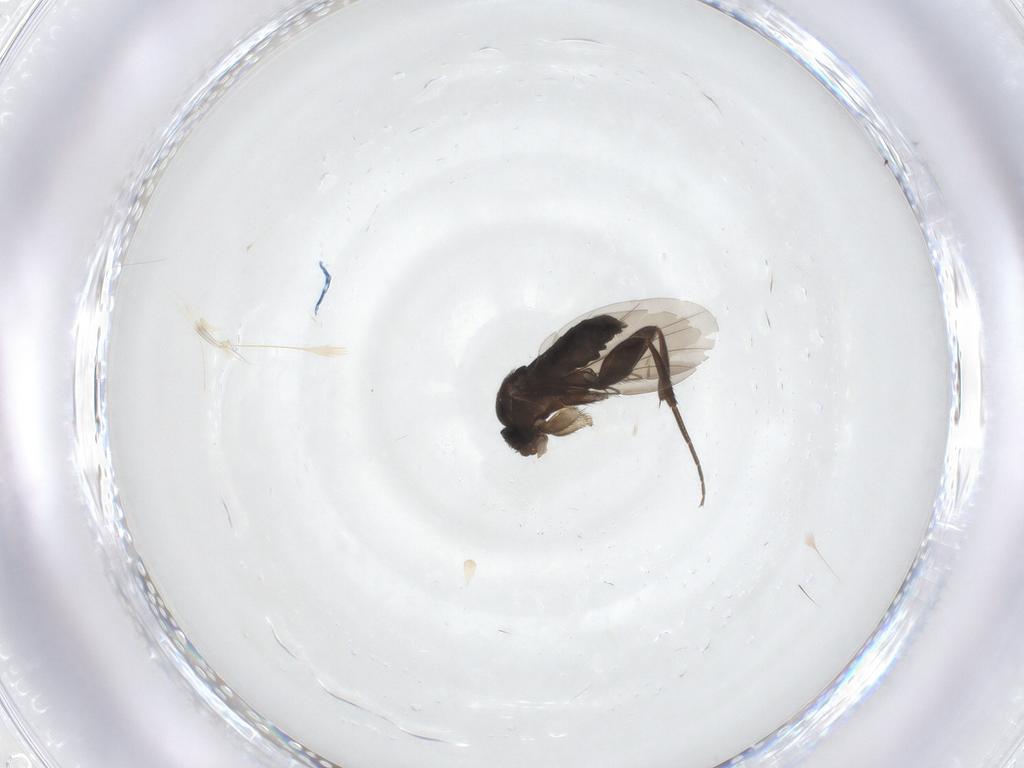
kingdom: Animalia
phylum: Arthropoda
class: Insecta
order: Diptera
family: Phoridae
